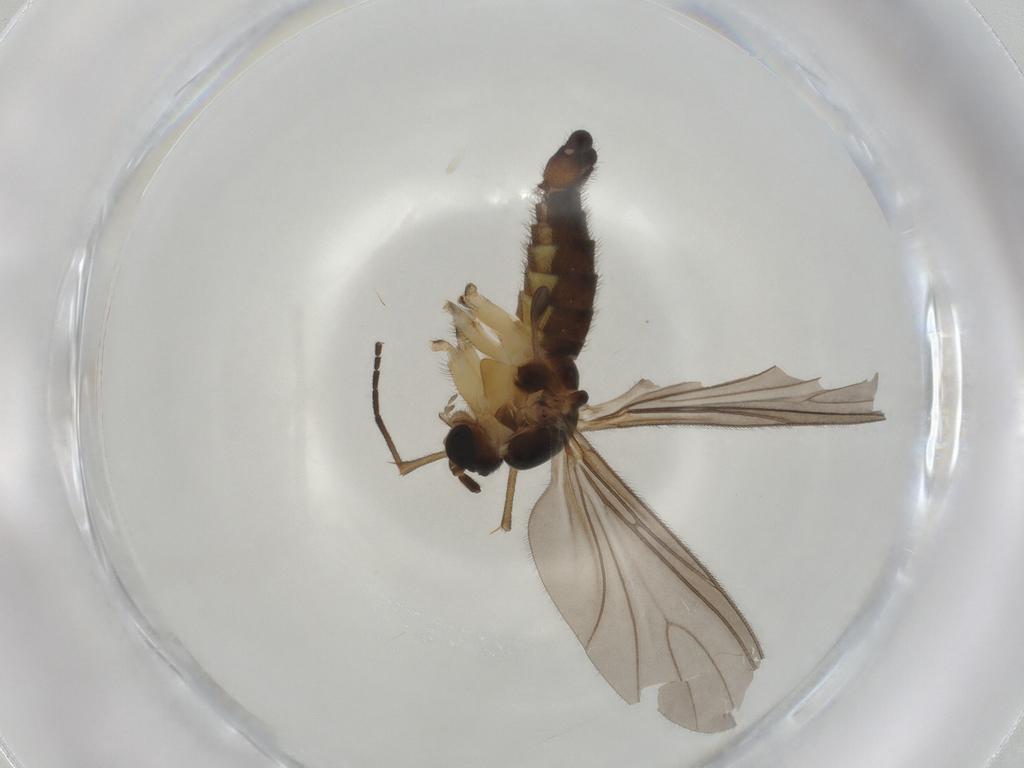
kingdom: Animalia
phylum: Arthropoda
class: Insecta
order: Diptera
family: Sciaridae
